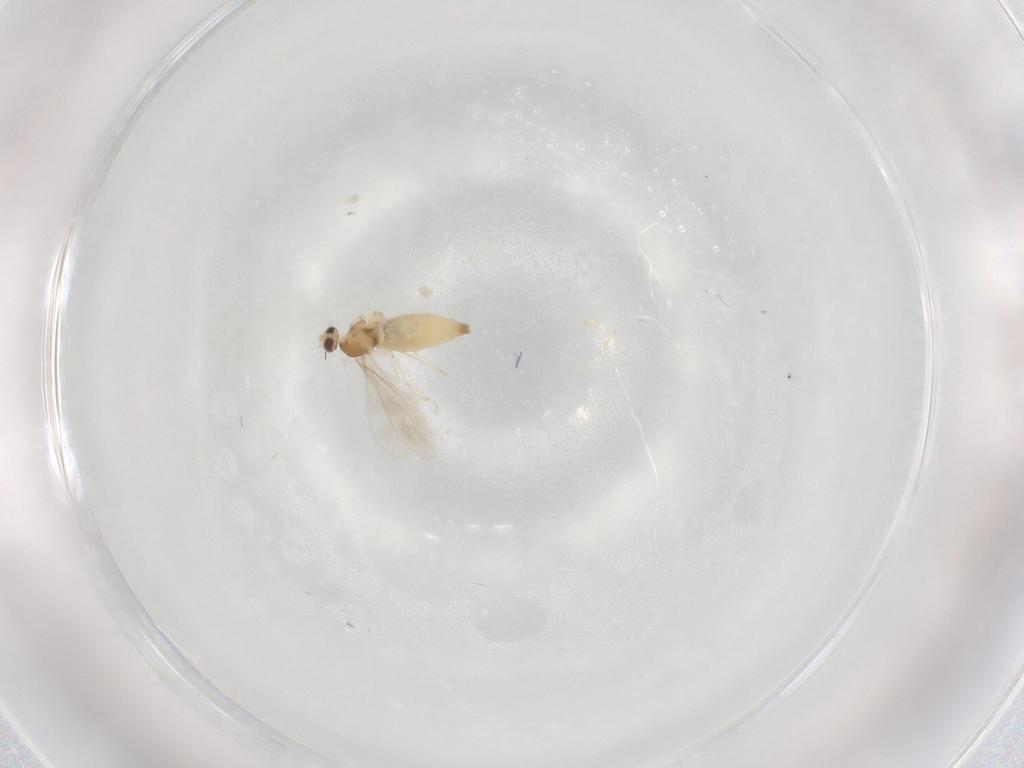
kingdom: Animalia
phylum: Arthropoda
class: Insecta
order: Diptera
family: Cecidomyiidae
